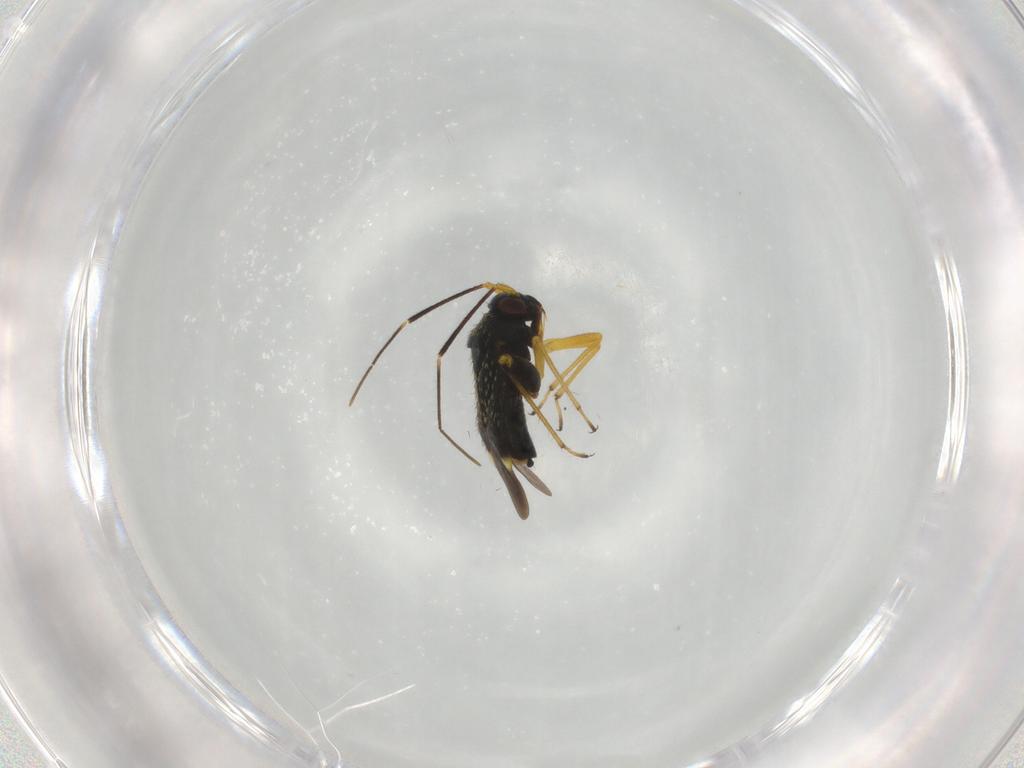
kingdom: Animalia
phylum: Arthropoda
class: Insecta
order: Hemiptera
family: Miridae
